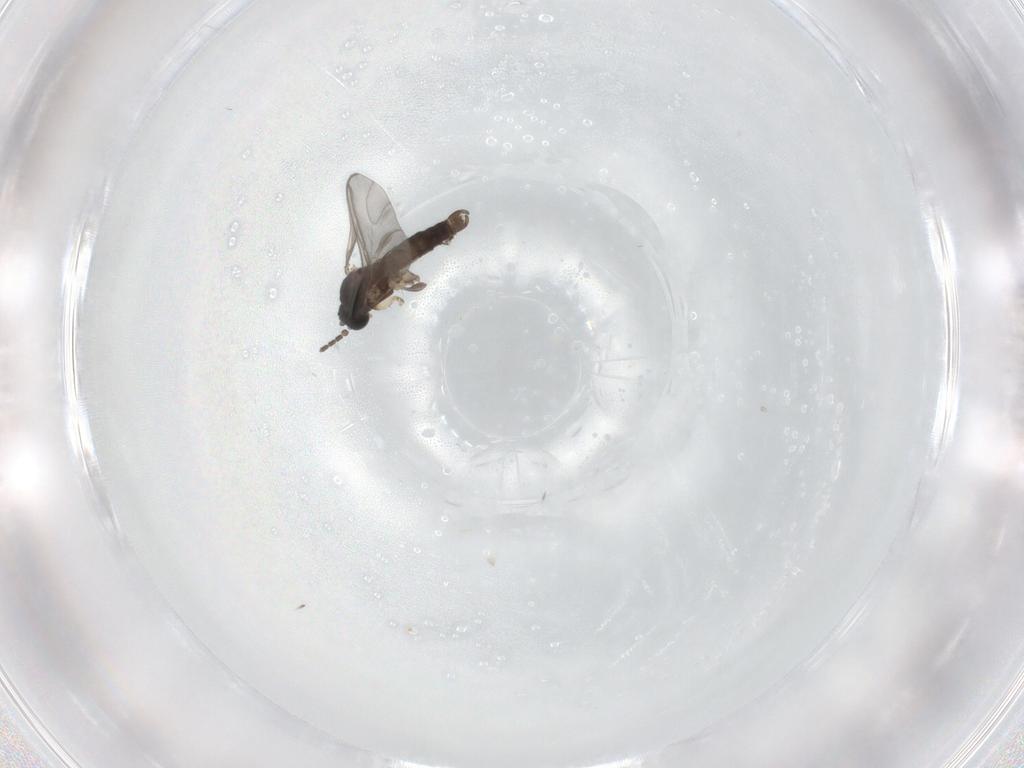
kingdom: Animalia
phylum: Arthropoda
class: Insecta
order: Diptera
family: Sciaridae
